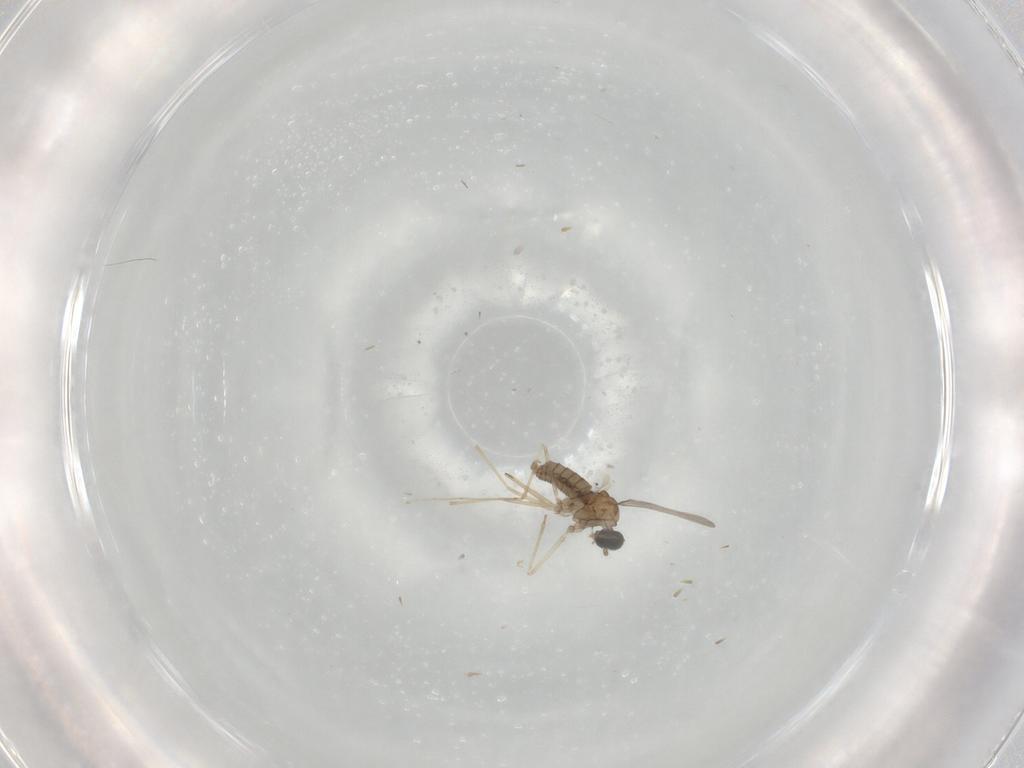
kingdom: Animalia
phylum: Arthropoda
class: Insecta
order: Diptera
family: Cecidomyiidae
